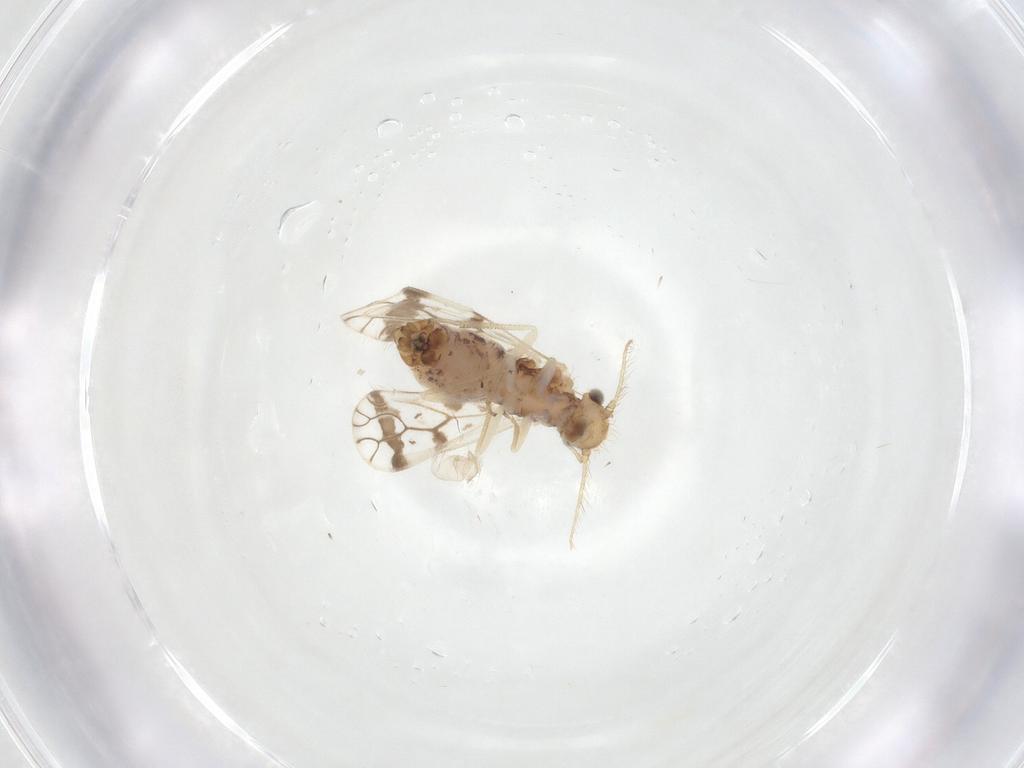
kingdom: Animalia
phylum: Arthropoda
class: Insecta
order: Psocodea
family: Pseudocaeciliidae
